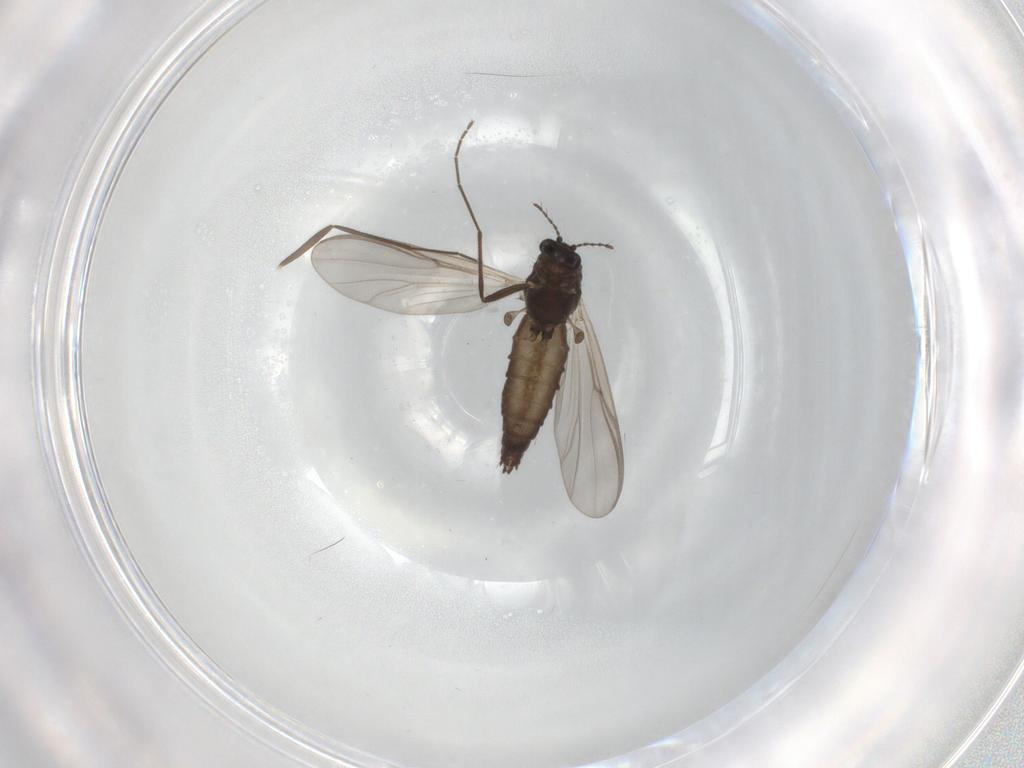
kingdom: Animalia
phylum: Arthropoda
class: Insecta
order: Diptera
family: Chironomidae
